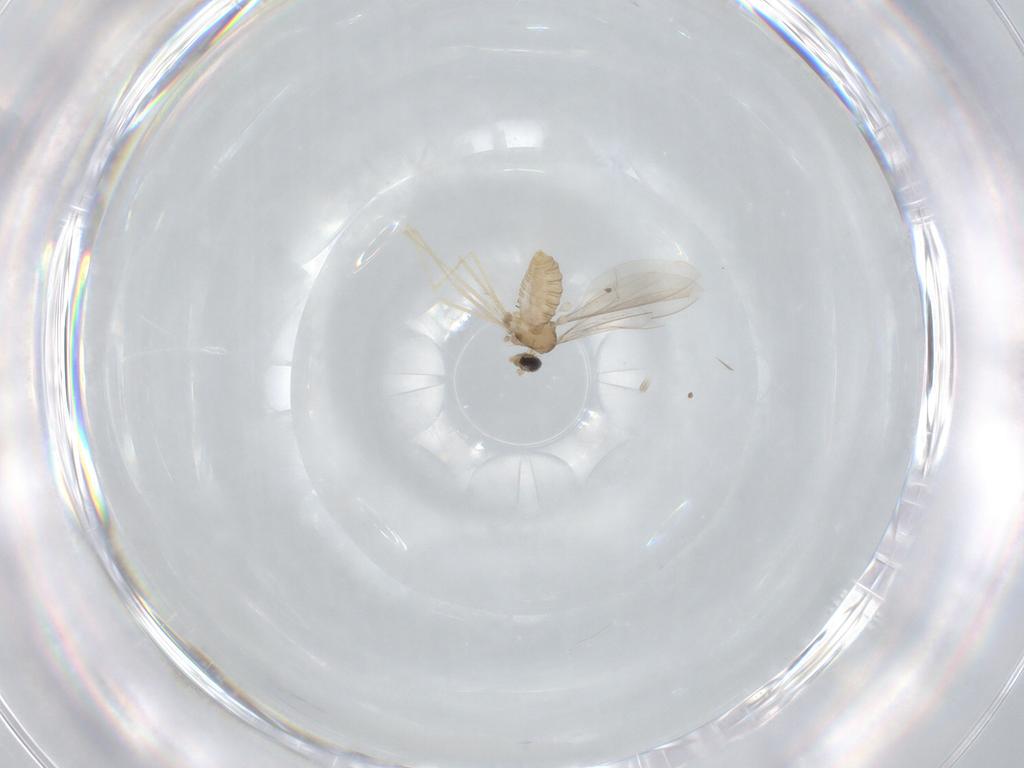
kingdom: Animalia
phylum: Arthropoda
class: Insecta
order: Diptera
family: Cecidomyiidae
